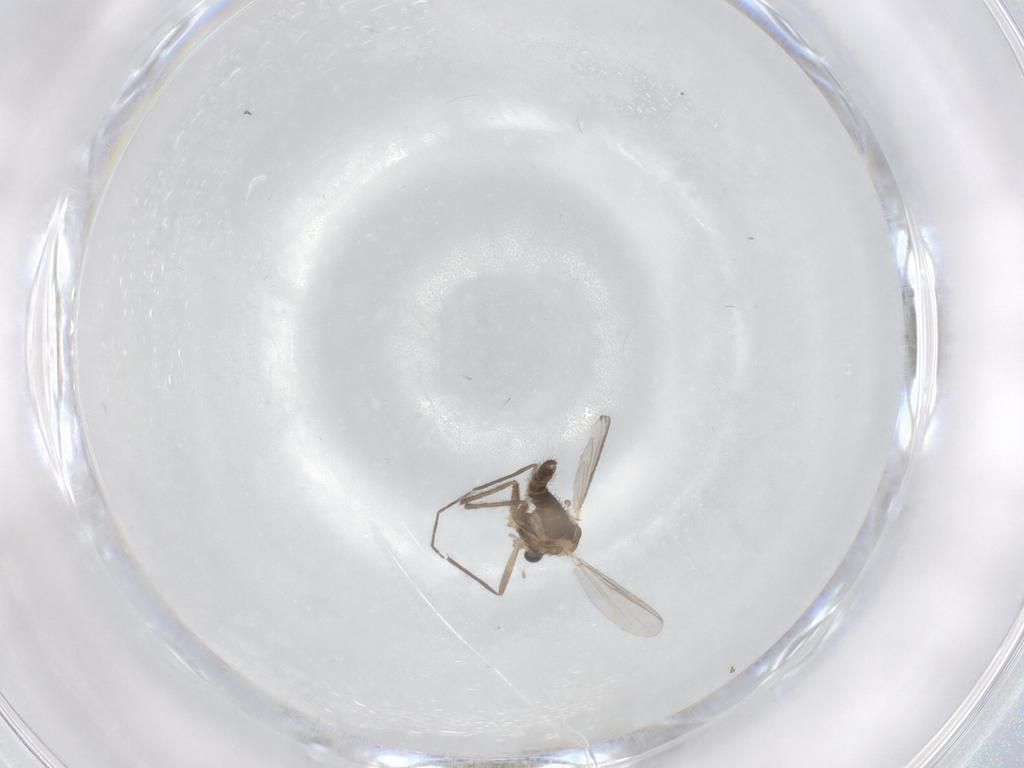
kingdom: Animalia
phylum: Arthropoda
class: Insecta
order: Diptera
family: Chironomidae
